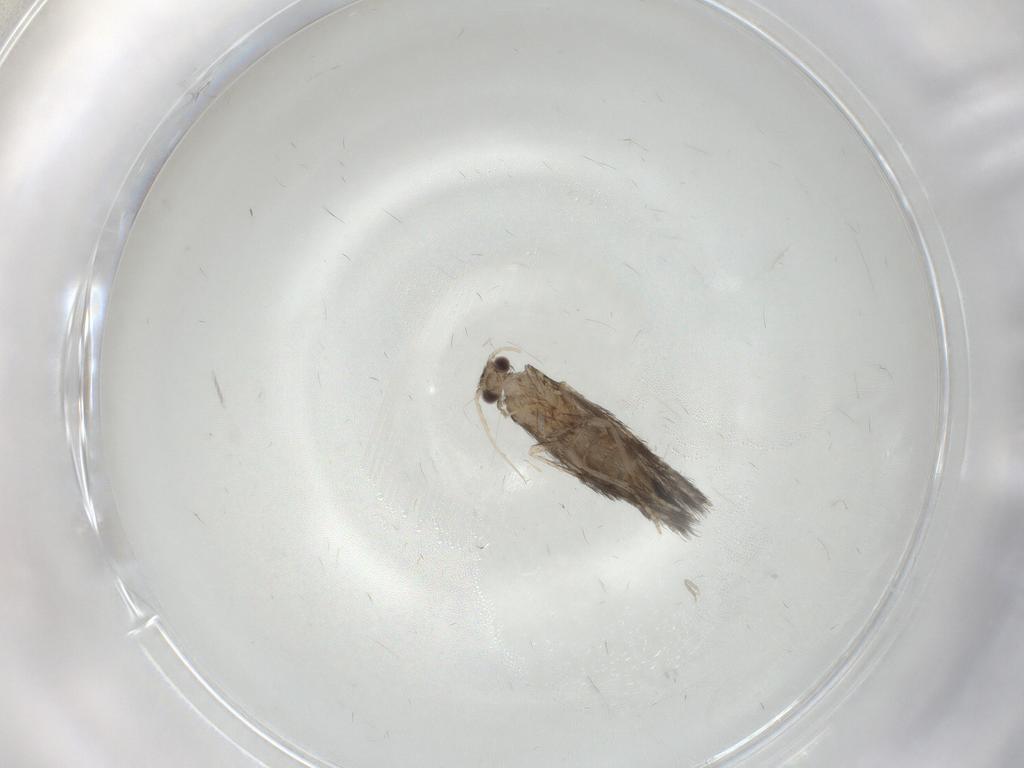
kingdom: Animalia
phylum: Arthropoda
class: Insecta
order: Trichoptera
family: Hydroptilidae
